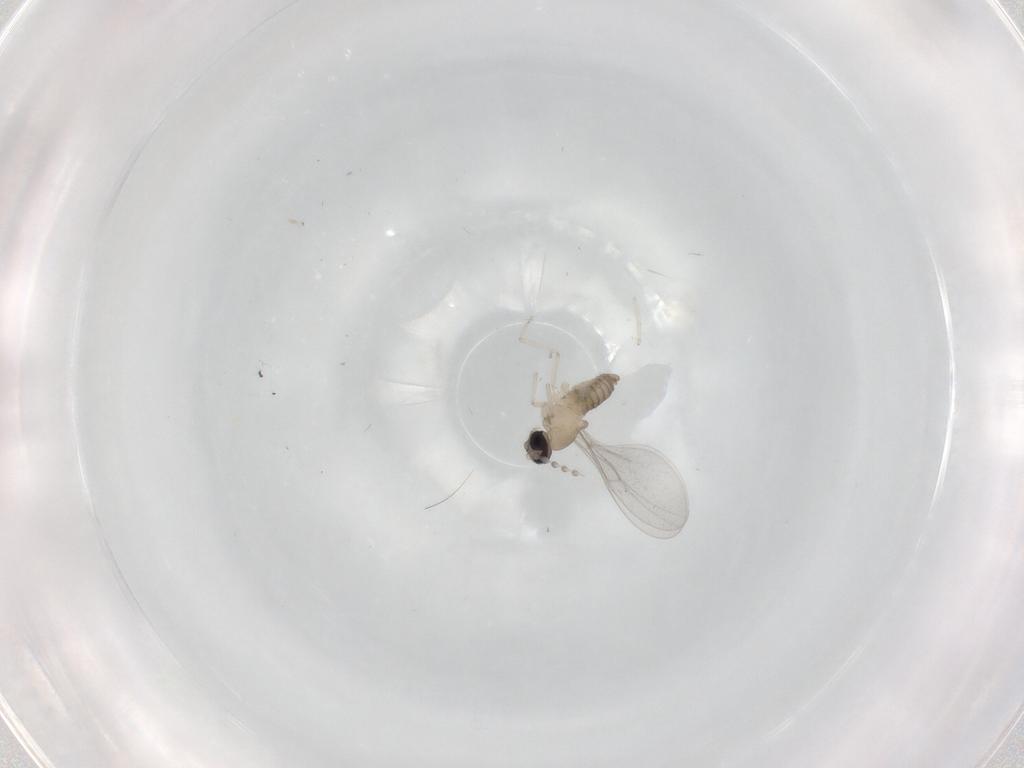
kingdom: Animalia
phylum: Arthropoda
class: Insecta
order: Diptera
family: Cecidomyiidae
